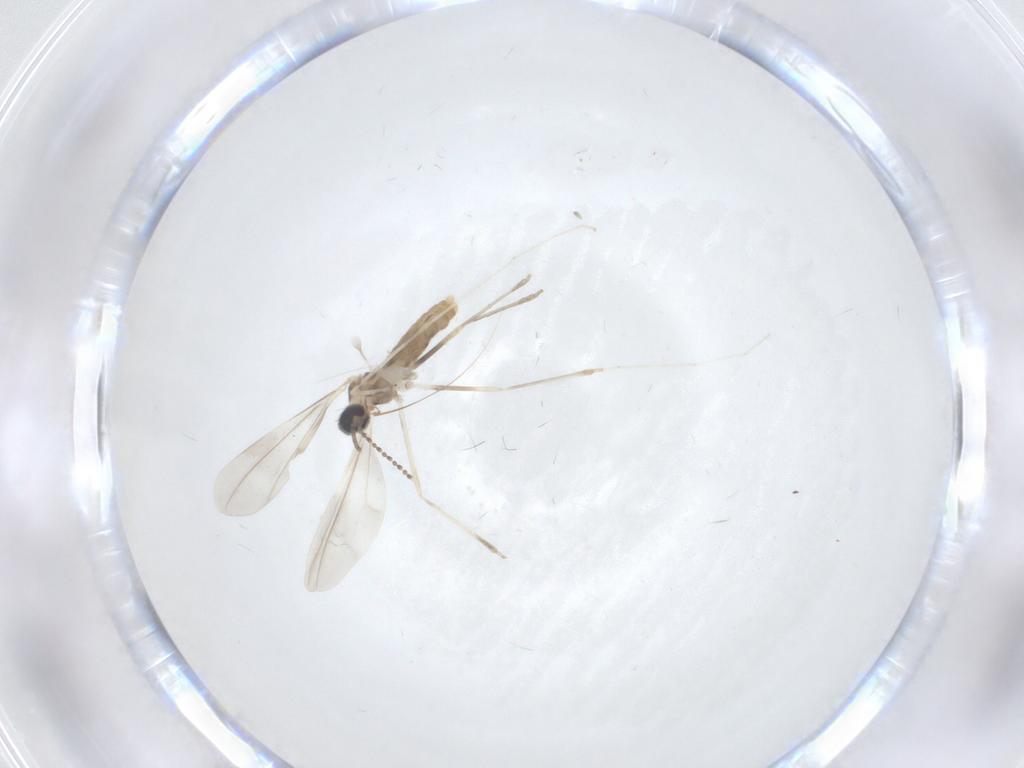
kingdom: Animalia
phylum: Arthropoda
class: Insecta
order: Diptera
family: Cecidomyiidae
